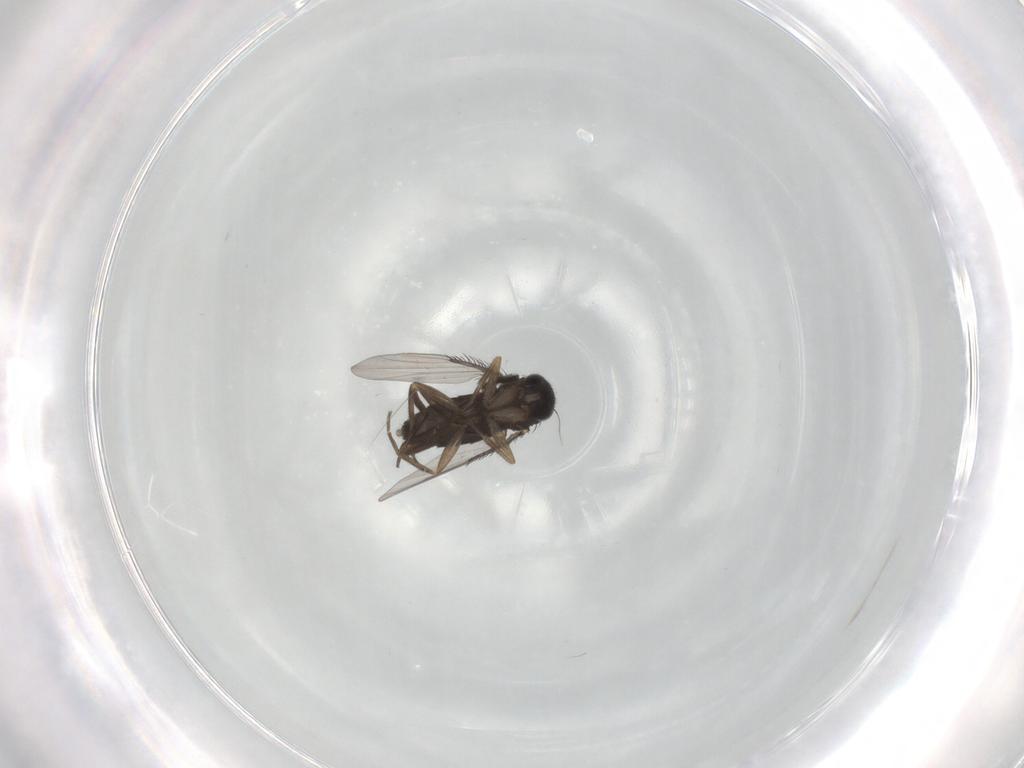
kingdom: Animalia
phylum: Arthropoda
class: Insecta
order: Diptera
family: Phoridae
